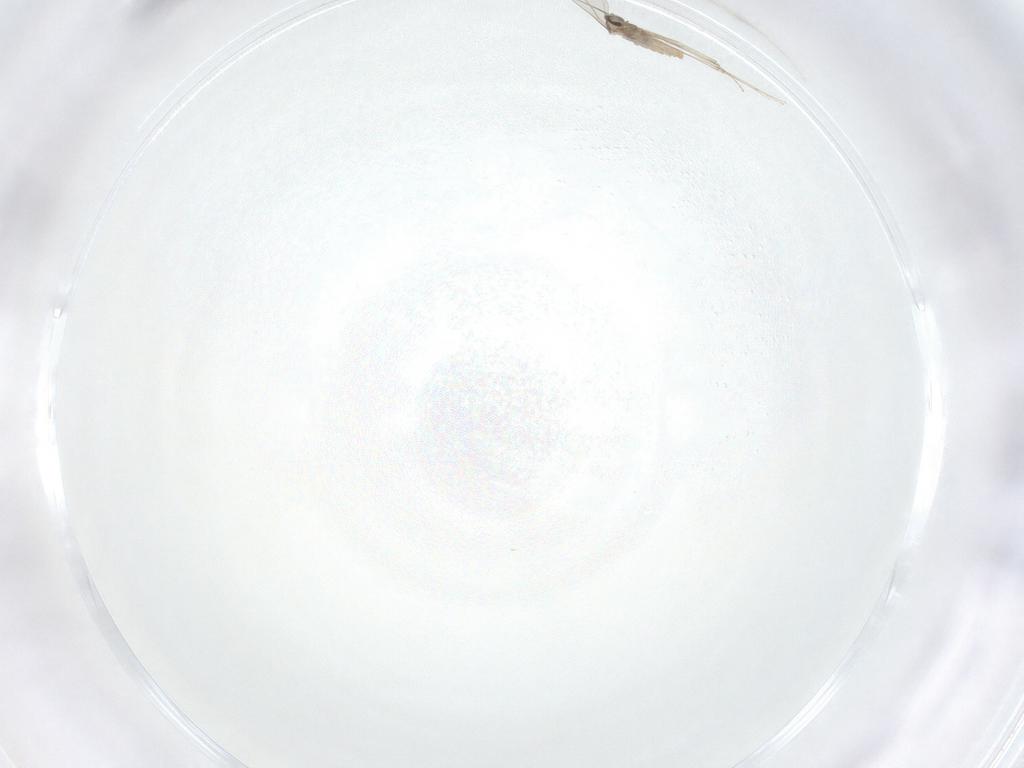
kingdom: Animalia
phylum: Arthropoda
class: Insecta
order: Diptera
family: Cecidomyiidae
